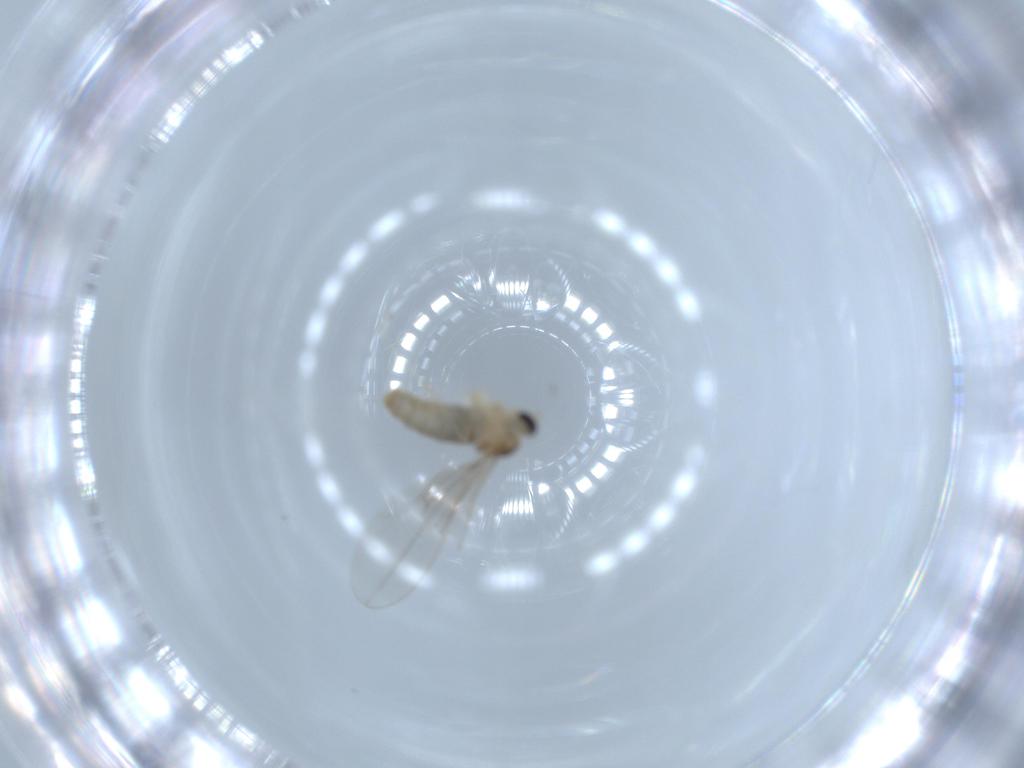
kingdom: Animalia
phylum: Arthropoda
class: Insecta
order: Diptera
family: Cecidomyiidae
